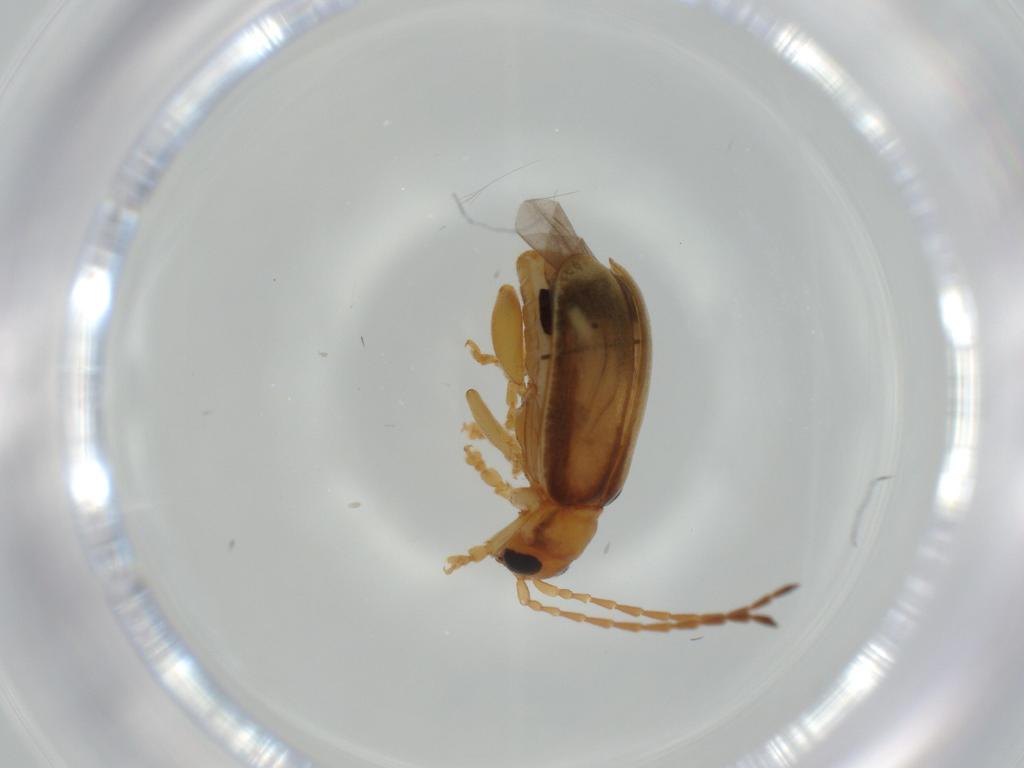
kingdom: Animalia
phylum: Arthropoda
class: Insecta
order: Coleoptera
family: Chrysomelidae
